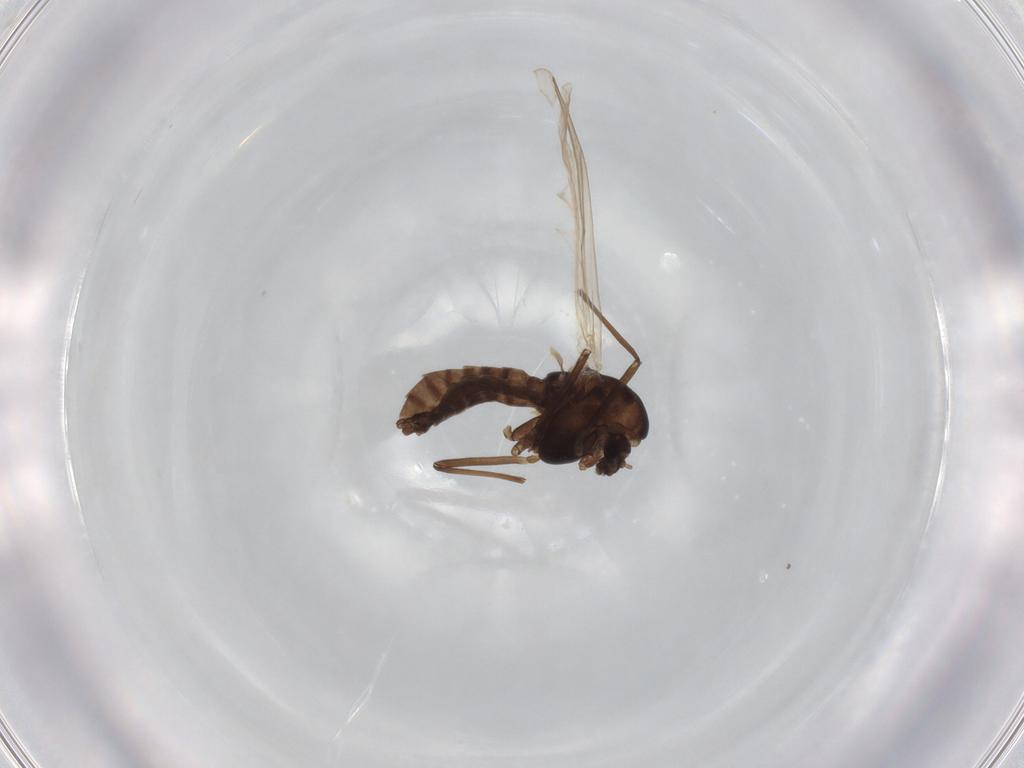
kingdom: Animalia
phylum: Arthropoda
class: Insecta
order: Diptera
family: Chironomidae
